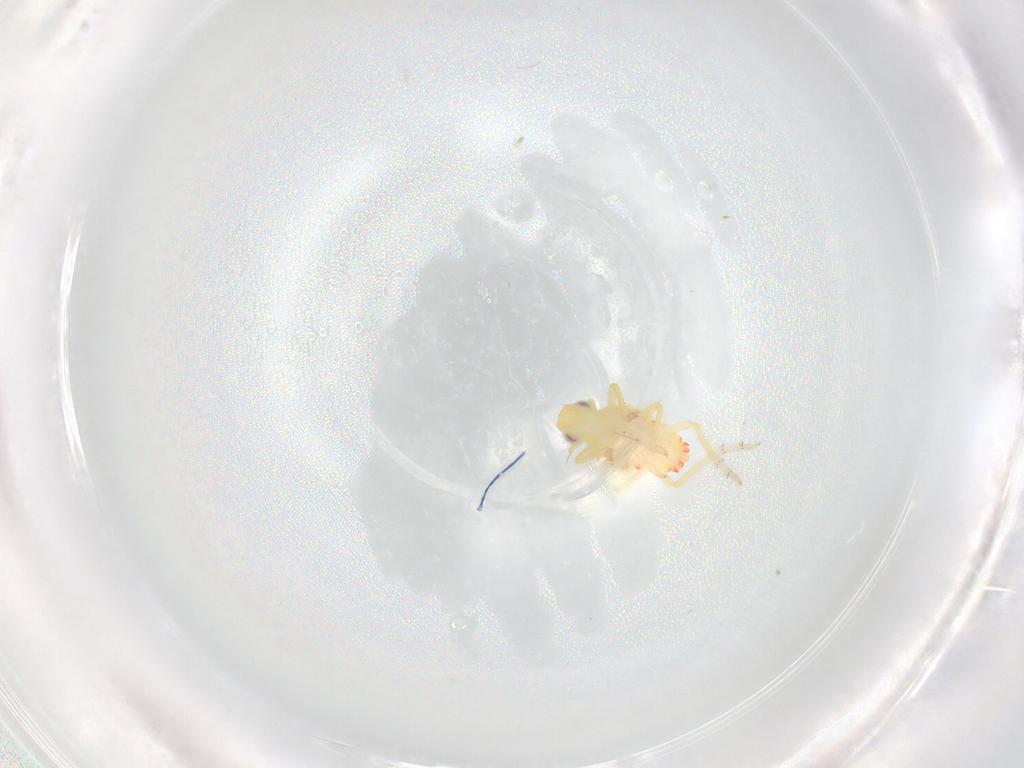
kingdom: Animalia
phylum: Arthropoda
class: Insecta
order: Hemiptera
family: Tropiduchidae
